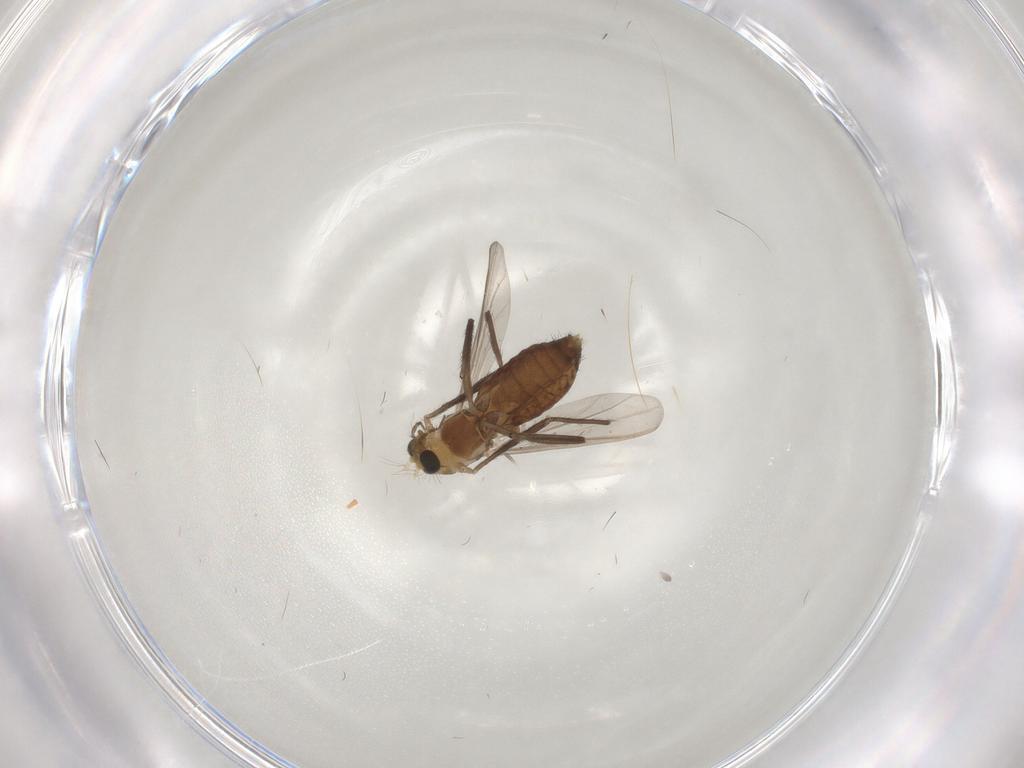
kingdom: Animalia
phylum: Arthropoda
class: Insecta
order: Diptera
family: Chironomidae
